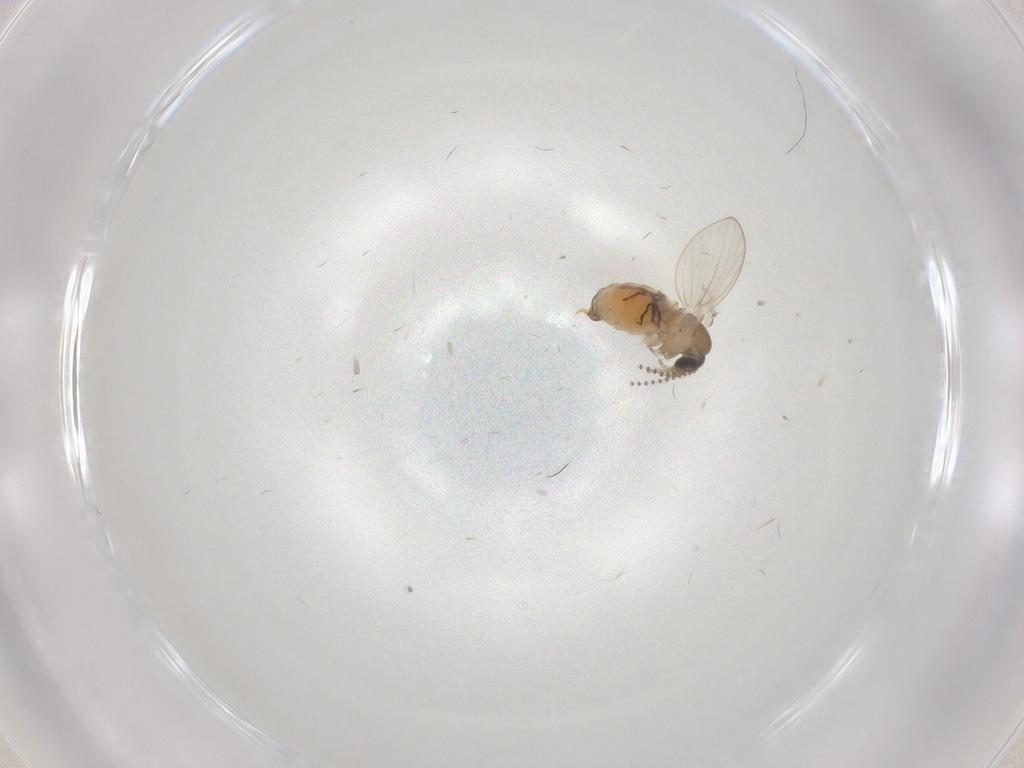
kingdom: Animalia
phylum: Arthropoda
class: Insecta
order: Diptera
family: Psychodidae
